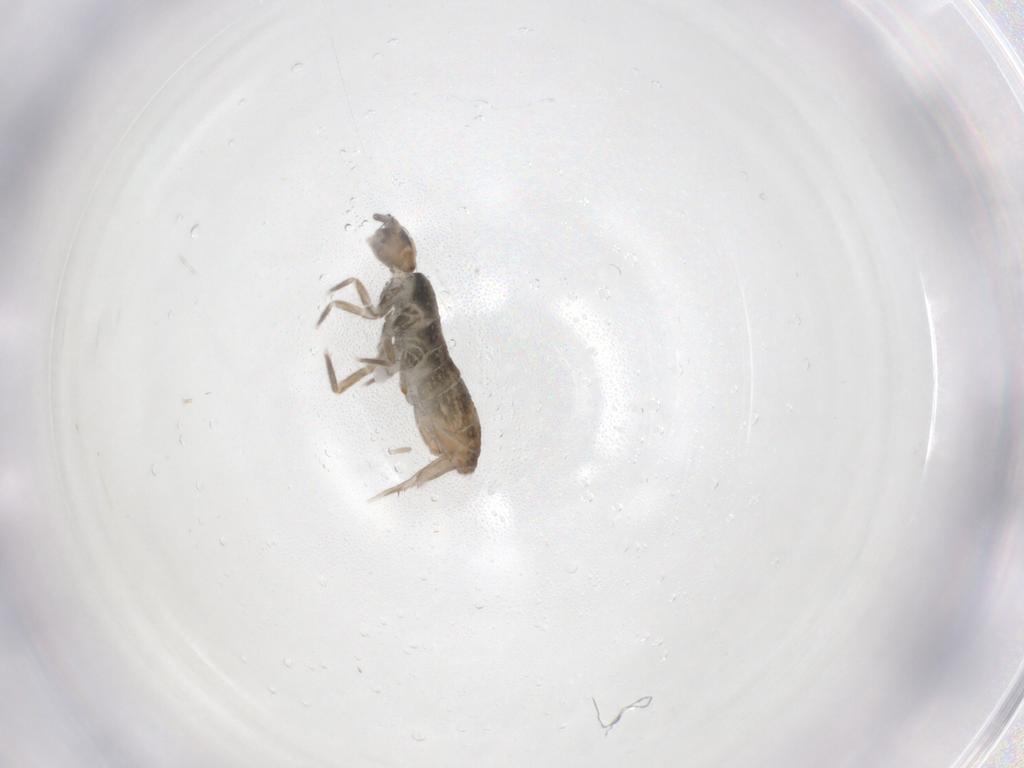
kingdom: Animalia
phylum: Arthropoda
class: Collembola
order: Entomobryomorpha
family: Tomoceridae
